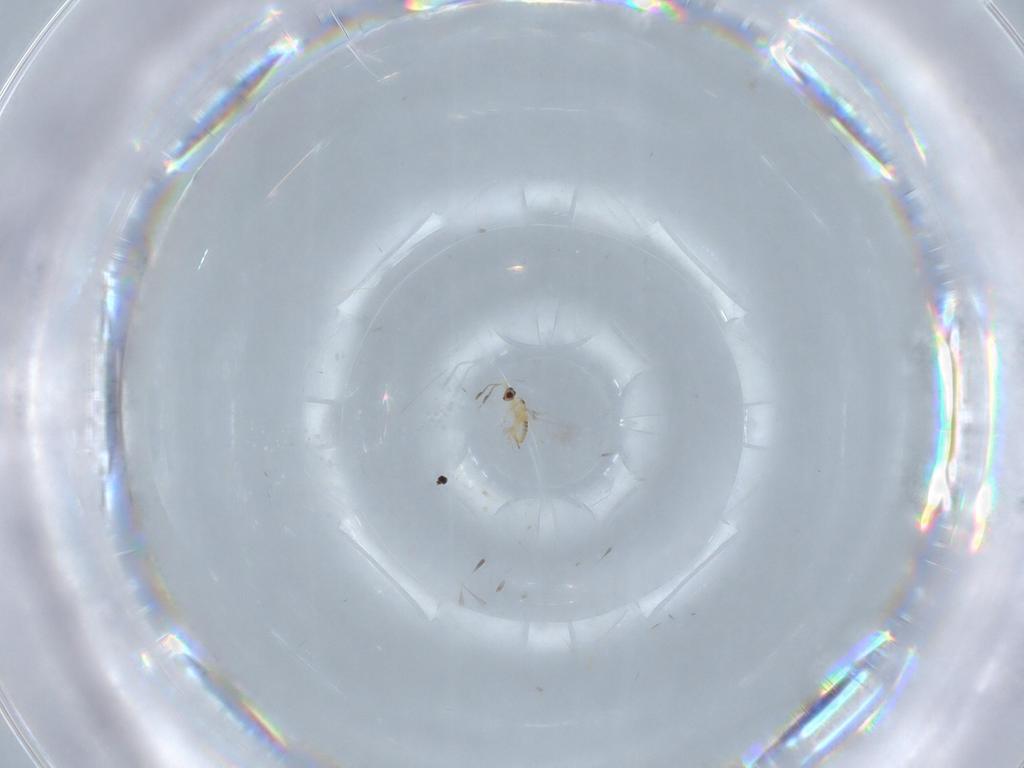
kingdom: Animalia
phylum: Arthropoda
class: Insecta
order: Hymenoptera
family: Mymaridae
